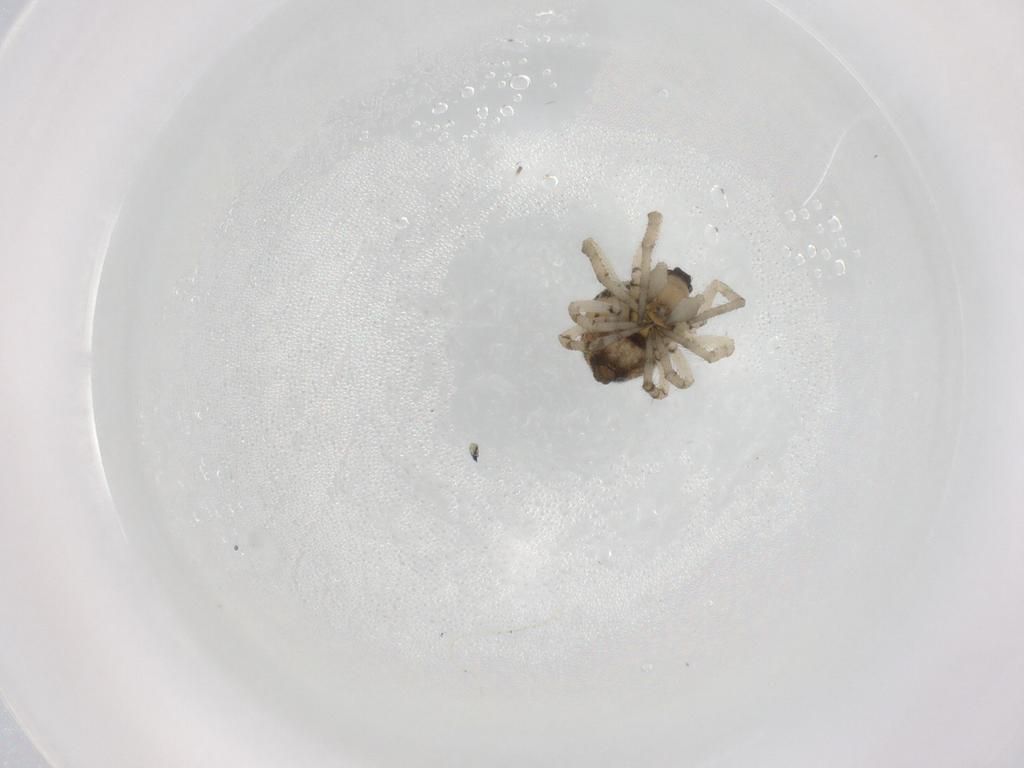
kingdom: Animalia
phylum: Arthropoda
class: Arachnida
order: Araneae
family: Theridiidae
